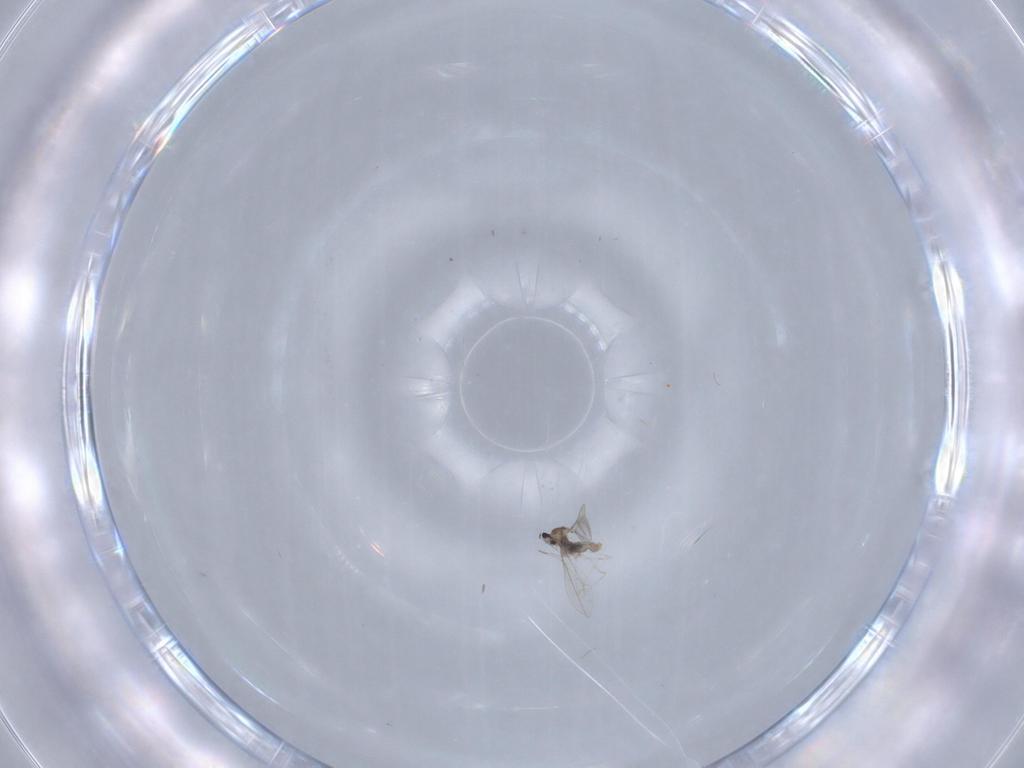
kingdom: Animalia
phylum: Arthropoda
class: Insecta
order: Diptera
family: Cecidomyiidae
